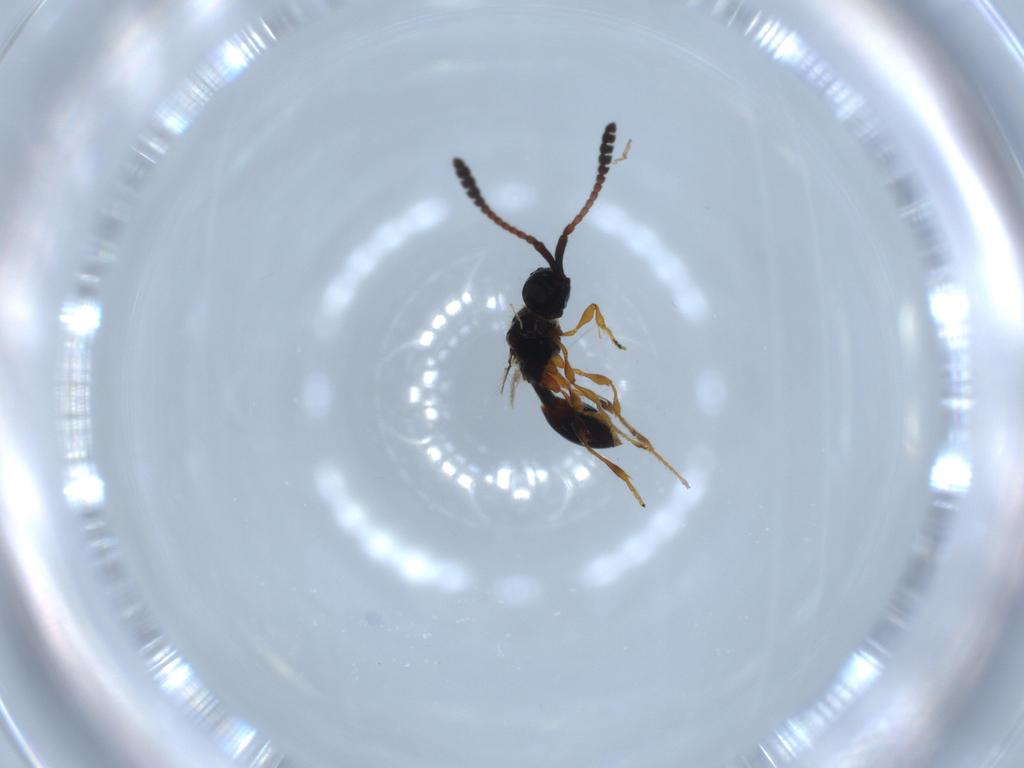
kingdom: Animalia
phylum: Arthropoda
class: Insecta
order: Hymenoptera
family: Diapriidae
